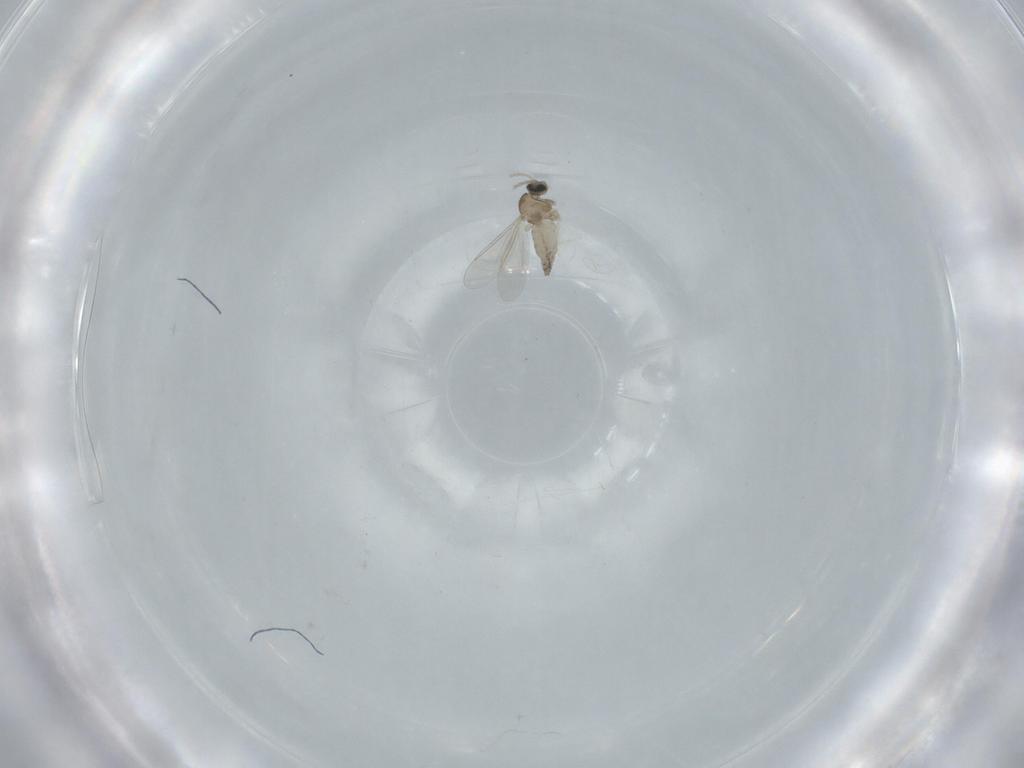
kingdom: Animalia
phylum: Arthropoda
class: Insecta
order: Diptera
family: Cecidomyiidae
